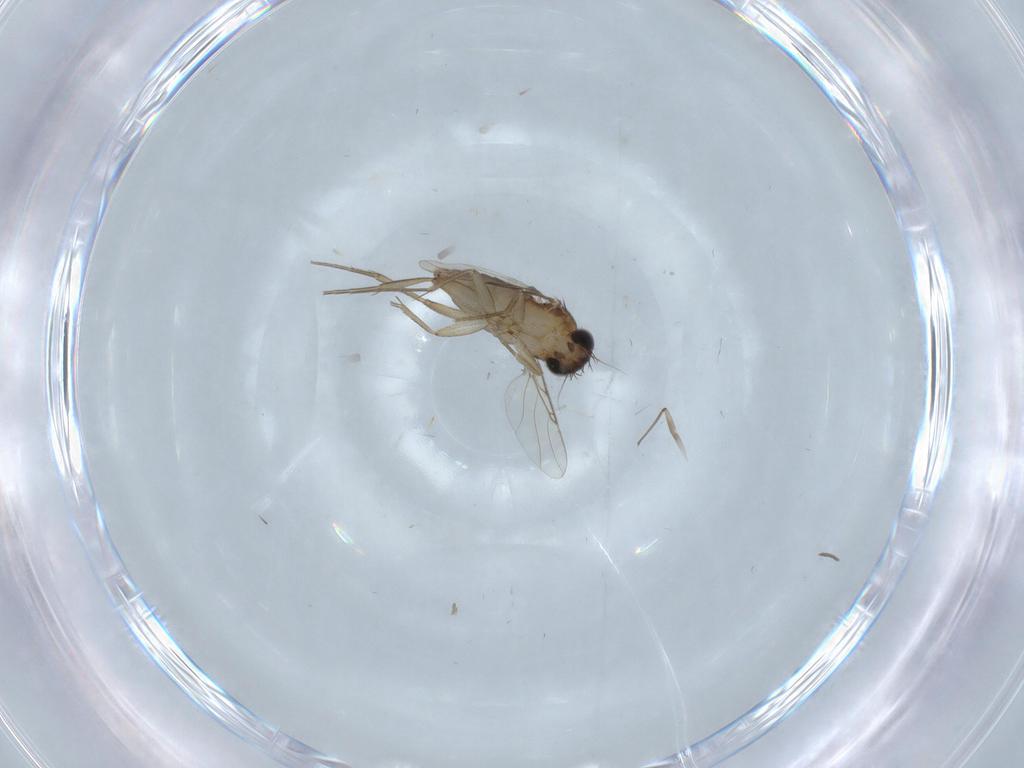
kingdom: Animalia
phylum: Arthropoda
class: Insecta
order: Diptera
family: Phoridae
